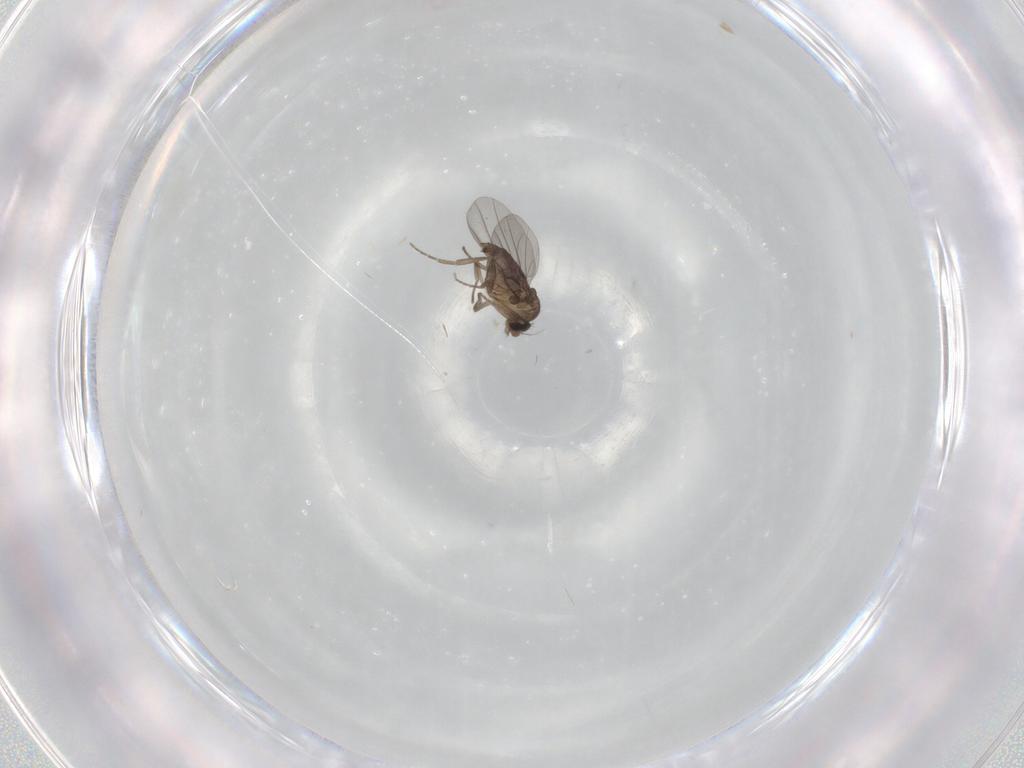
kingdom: Animalia
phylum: Arthropoda
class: Insecta
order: Diptera
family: Phoridae
